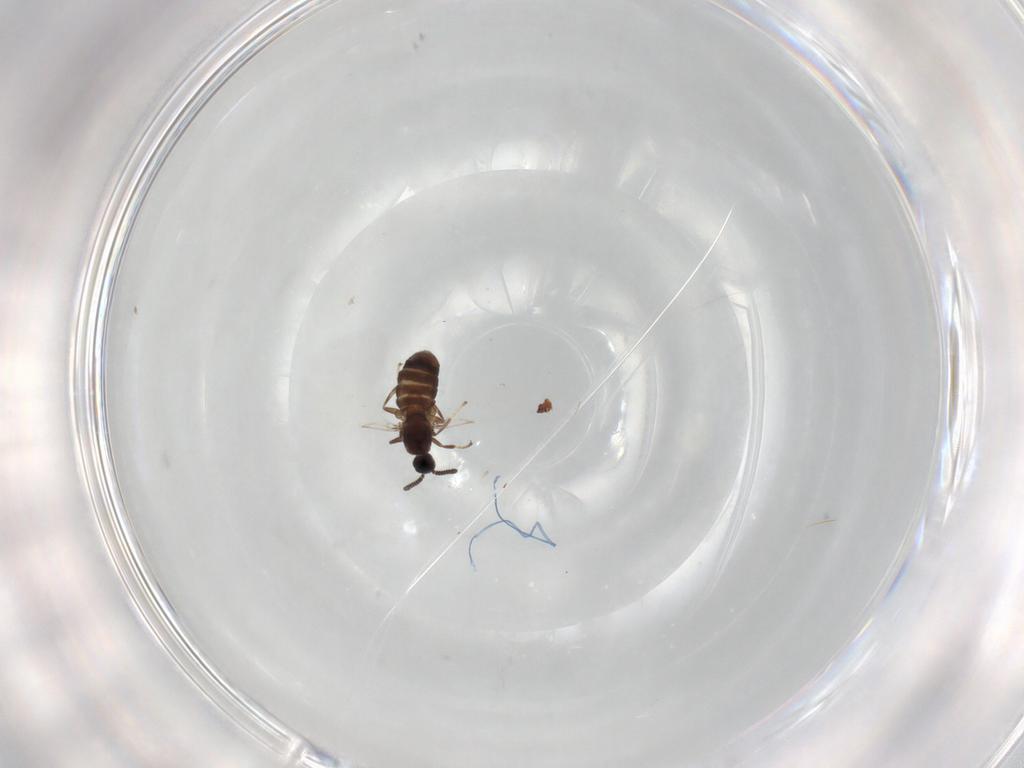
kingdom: Animalia
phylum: Arthropoda
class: Insecta
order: Diptera
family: Scatopsidae
